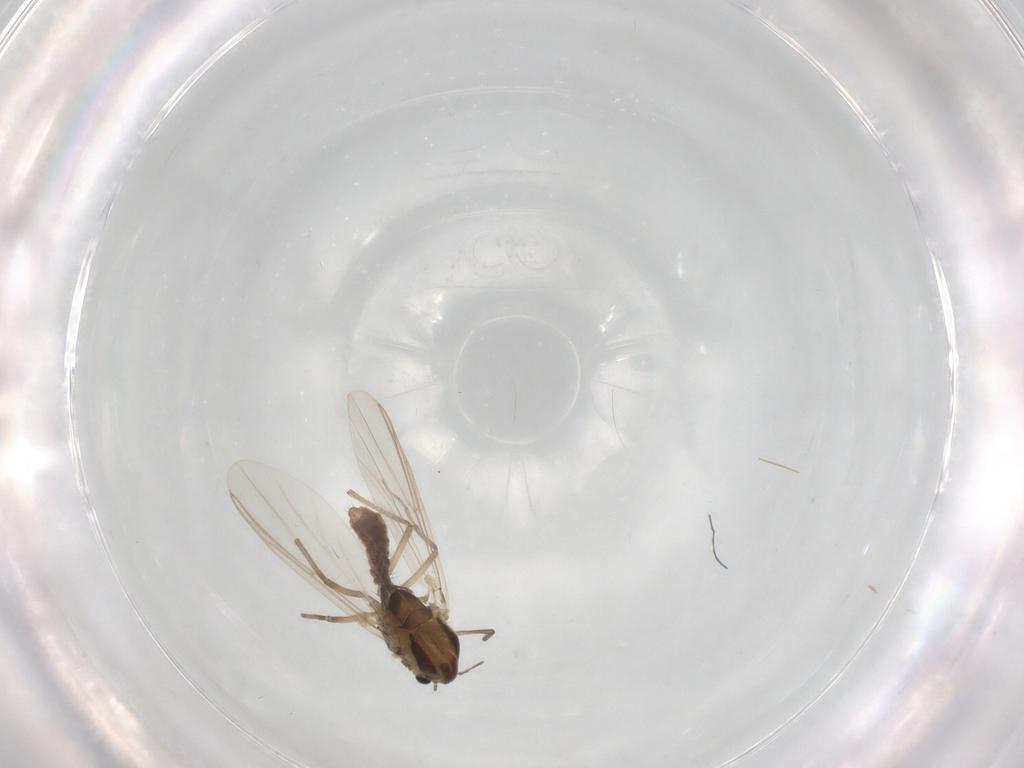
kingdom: Animalia
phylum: Arthropoda
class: Insecta
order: Diptera
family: Chironomidae
